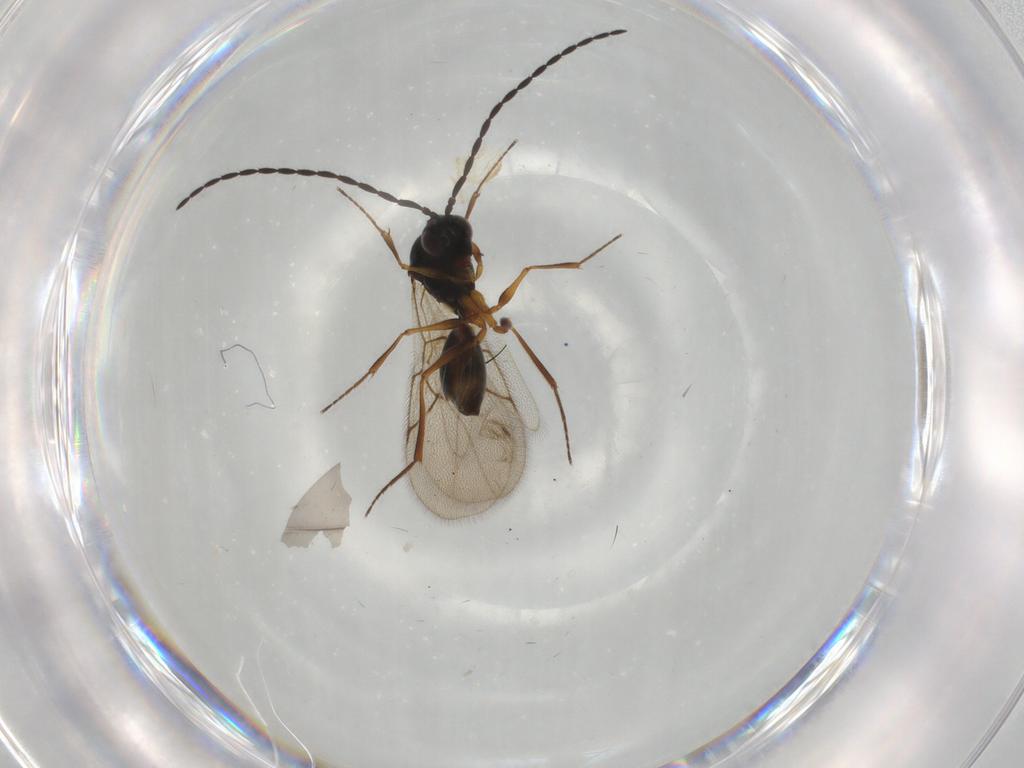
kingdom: Animalia
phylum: Arthropoda
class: Insecta
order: Hymenoptera
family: Figitidae
